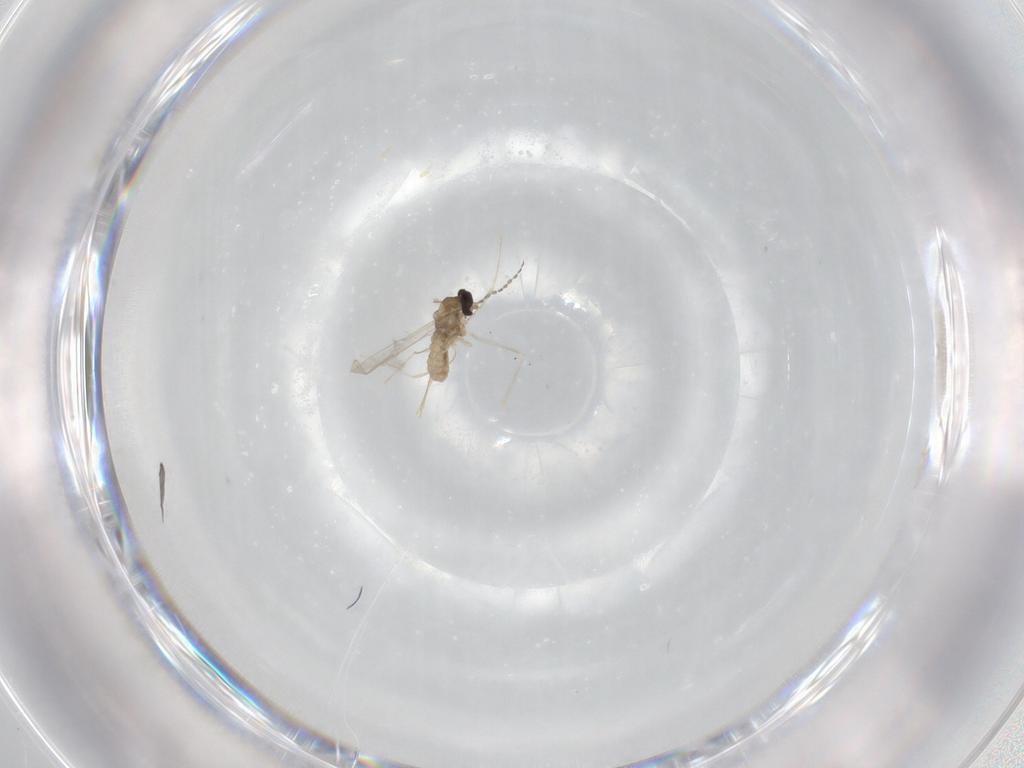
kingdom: Animalia
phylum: Arthropoda
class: Insecta
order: Diptera
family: Cecidomyiidae
